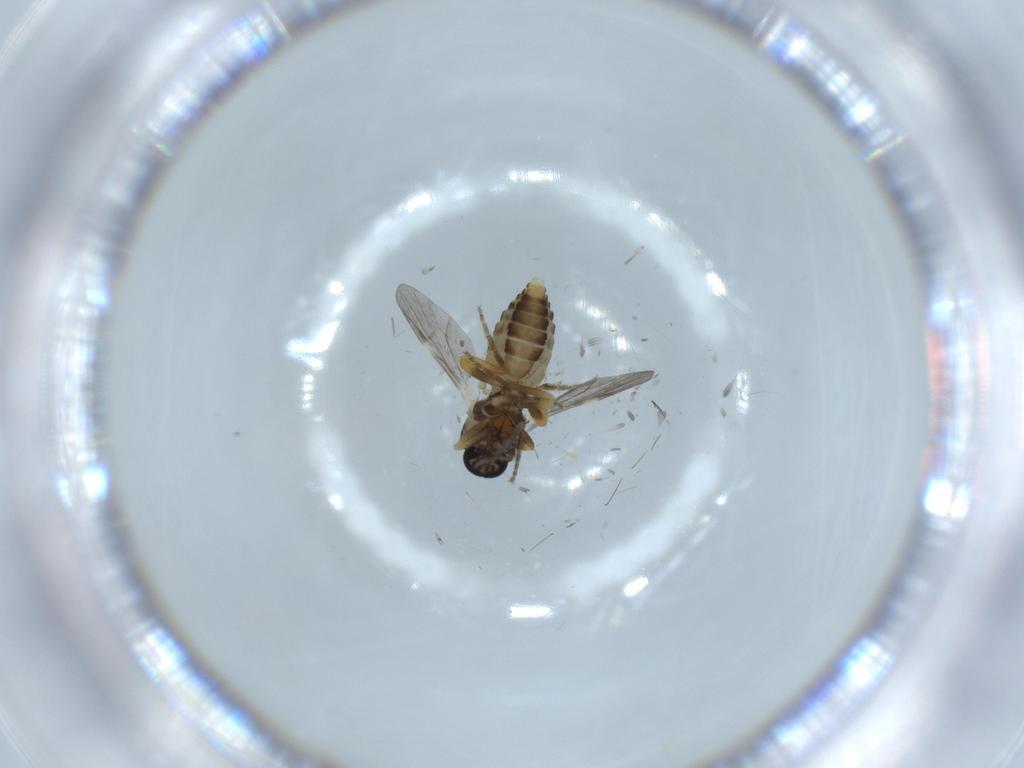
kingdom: Animalia
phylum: Arthropoda
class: Insecta
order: Diptera
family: Ceratopogonidae
